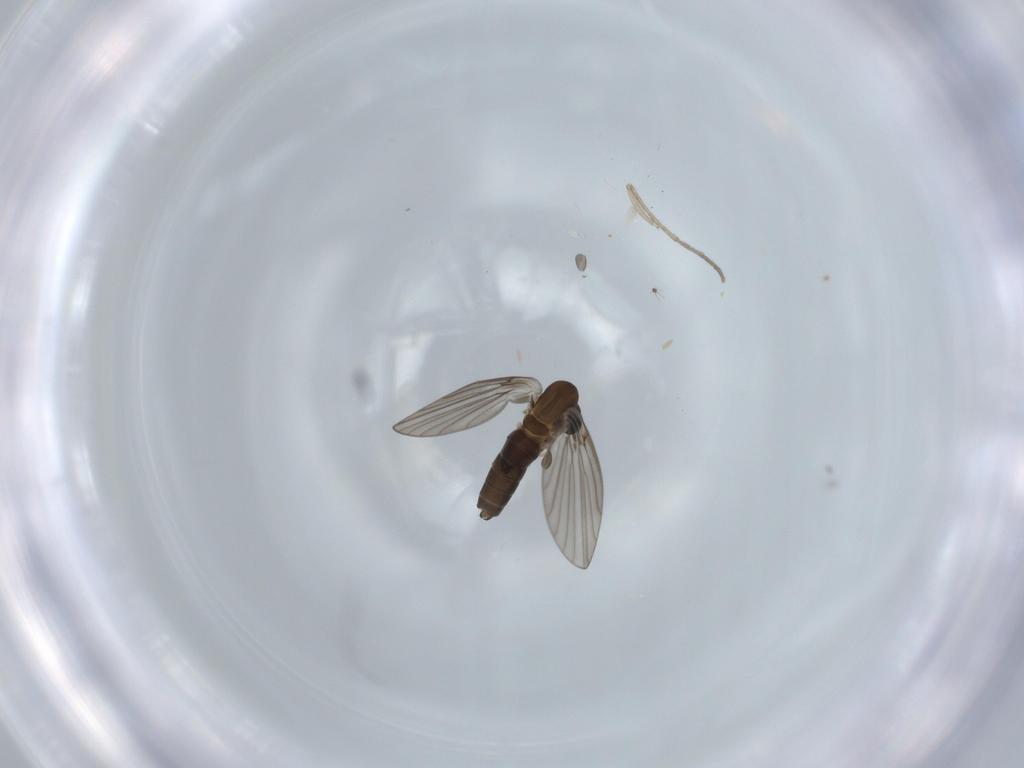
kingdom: Animalia
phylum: Arthropoda
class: Insecta
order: Diptera
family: Cecidomyiidae
